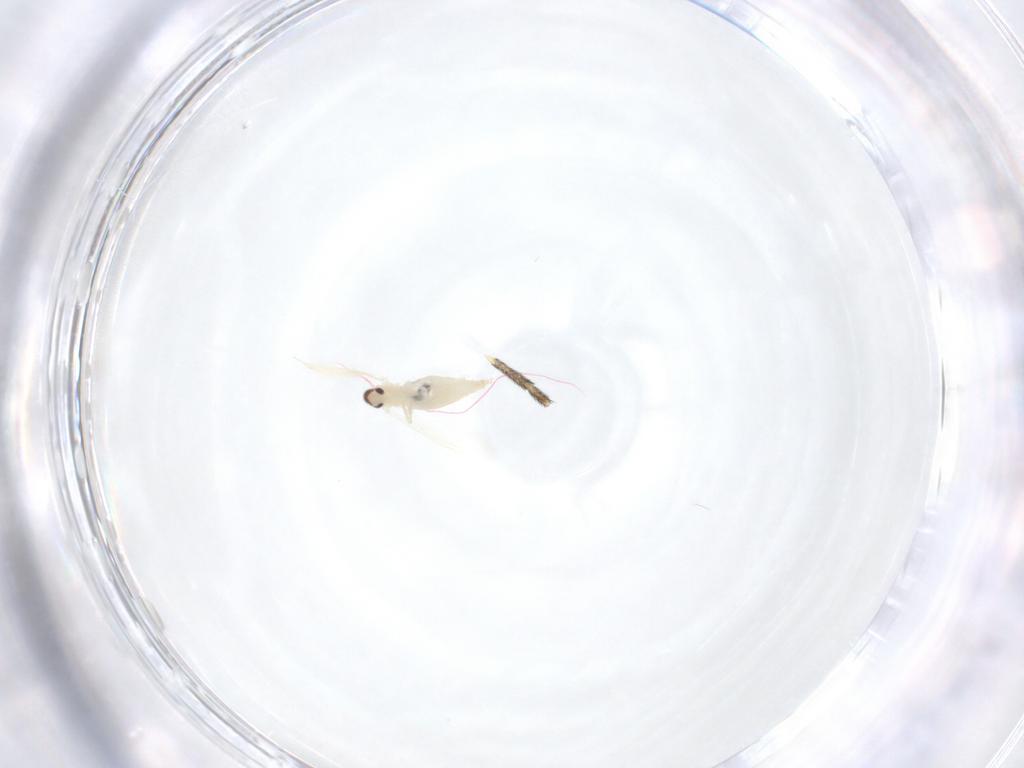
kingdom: Animalia
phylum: Arthropoda
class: Insecta
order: Diptera
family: Cecidomyiidae
